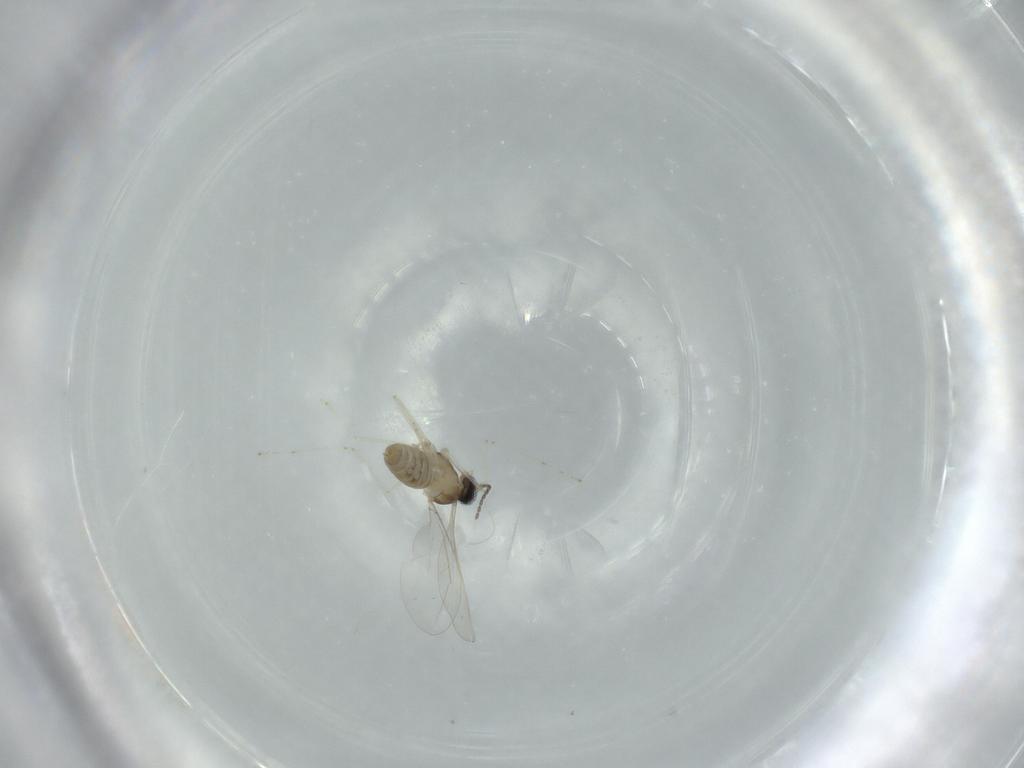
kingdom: Animalia
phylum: Arthropoda
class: Insecta
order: Diptera
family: Cecidomyiidae
